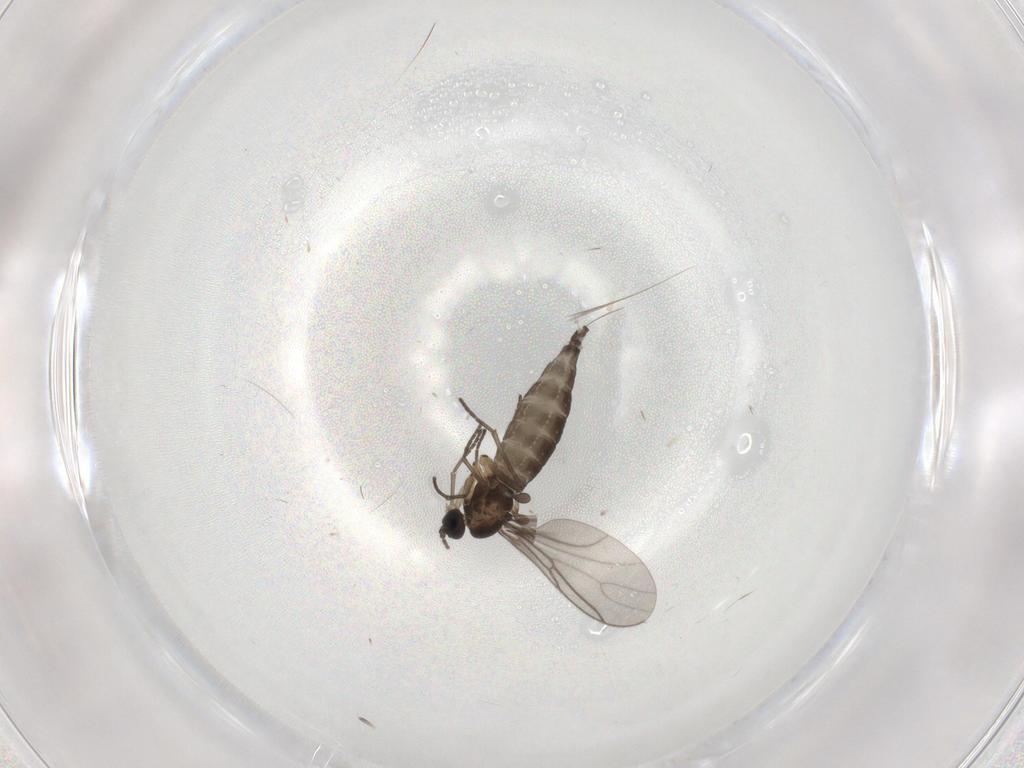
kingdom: Animalia
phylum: Arthropoda
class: Insecta
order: Diptera
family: Sciaridae
